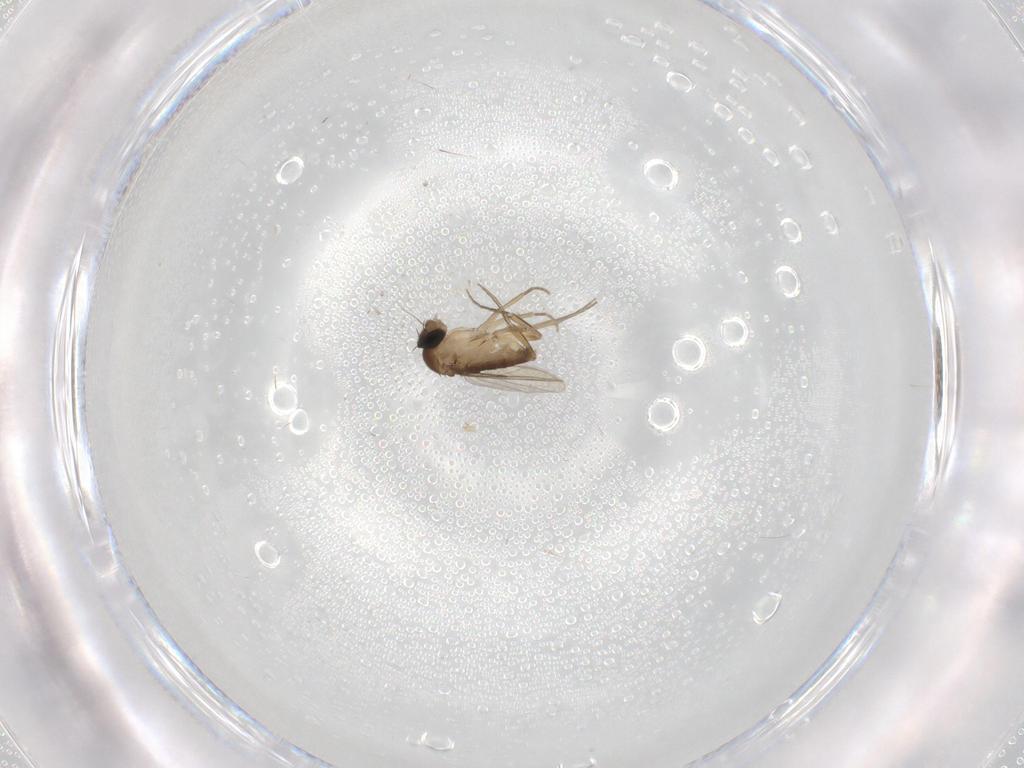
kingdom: Animalia
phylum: Arthropoda
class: Insecta
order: Diptera
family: Phoridae
